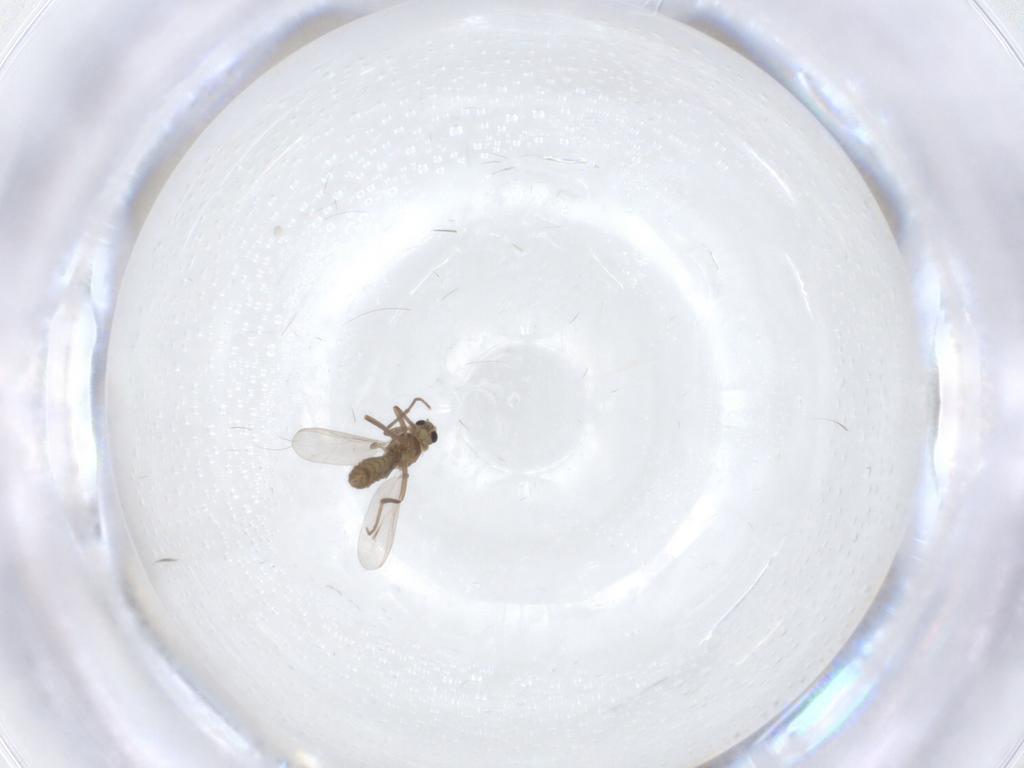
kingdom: Animalia
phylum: Arthropoda
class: Insecta
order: Diptera
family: Chironomidae
